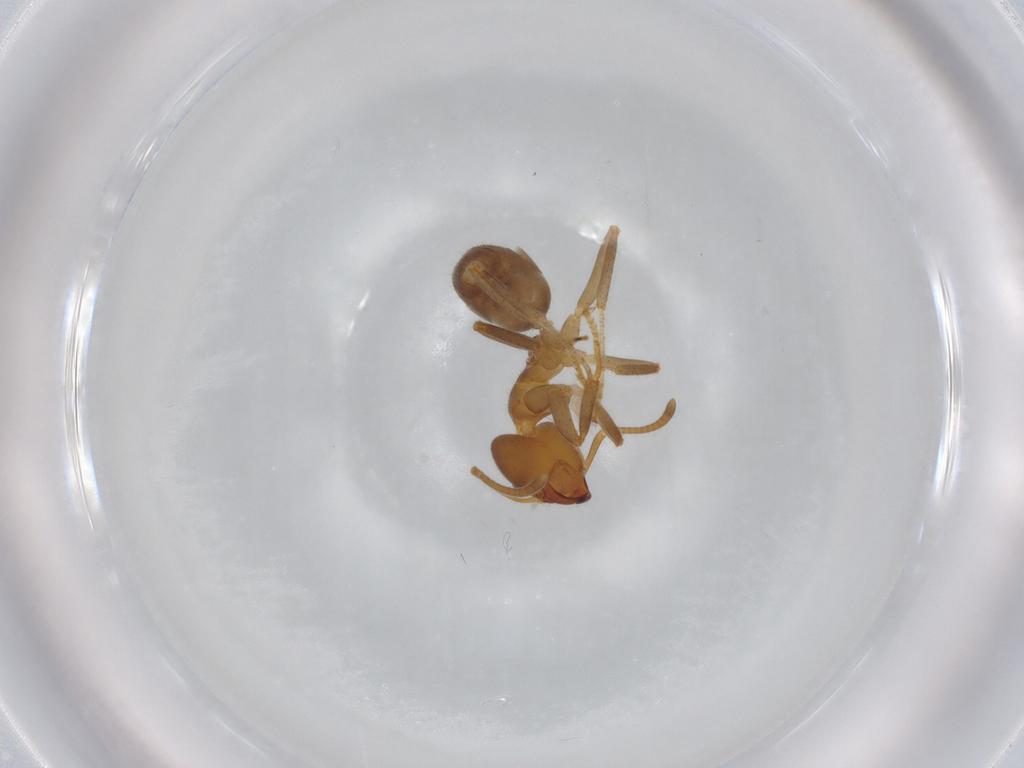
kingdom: Animalia
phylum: Arthropoda
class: Insecta
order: Hymenoptera
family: Formicidae
